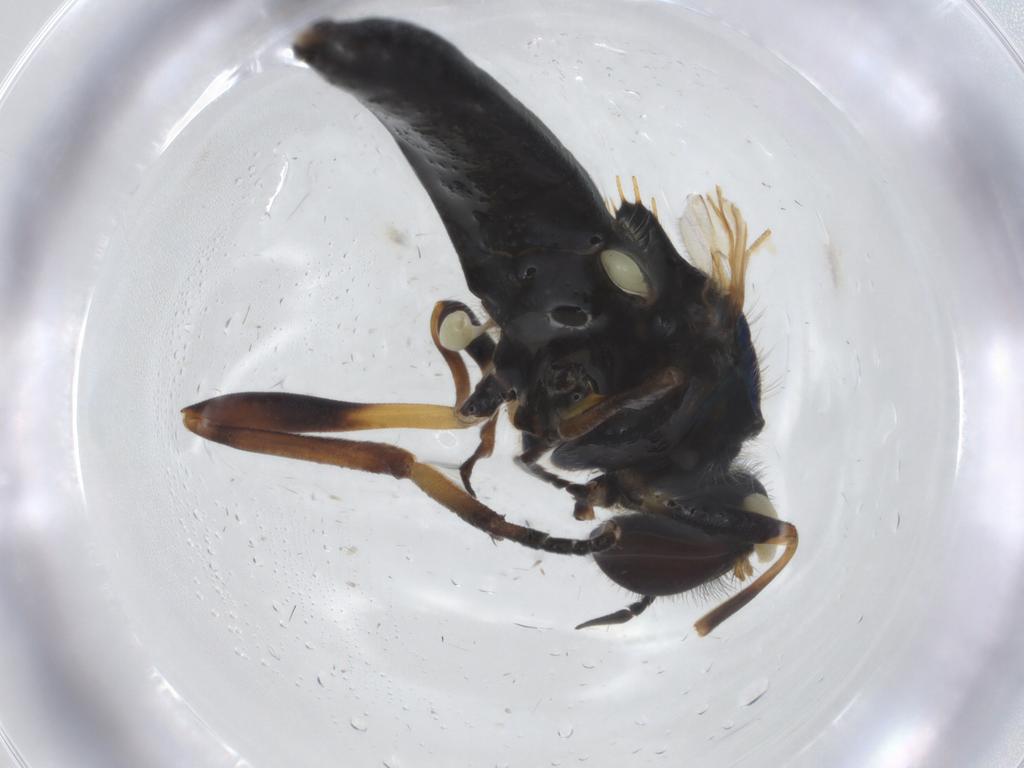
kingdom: Animalia
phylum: Arthropoda
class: Insecta
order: Diptera
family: Stratiomyidae
